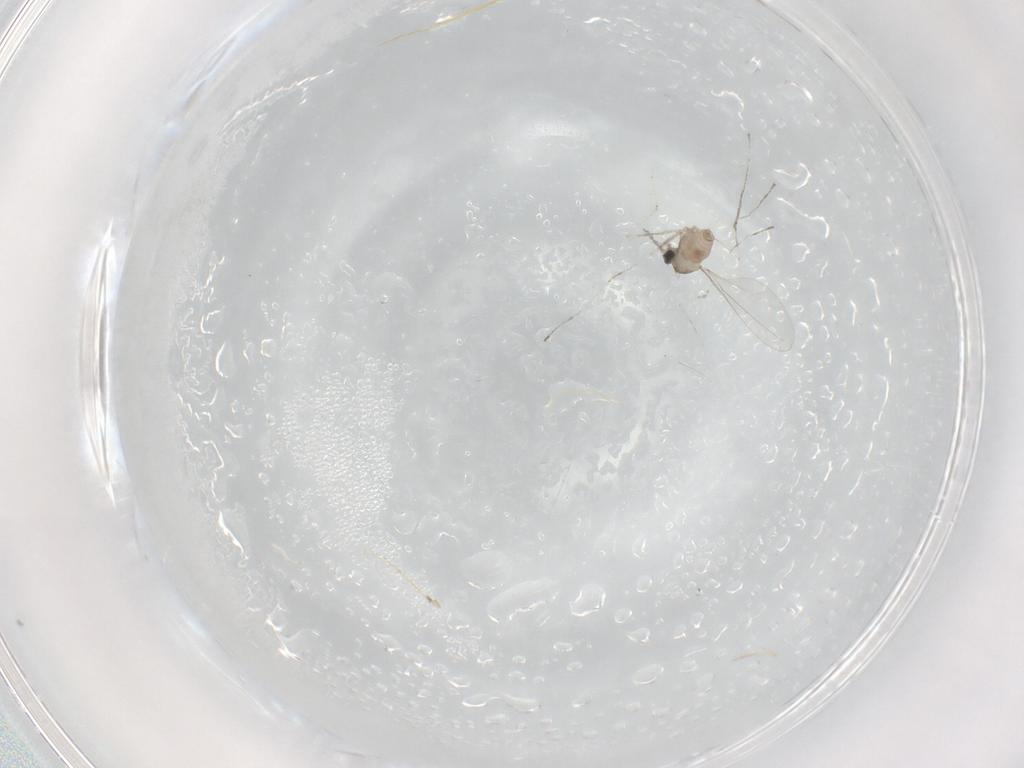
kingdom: Animalia
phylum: Arthropoda
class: Insecta
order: Diptera
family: Cecidomyiidae
